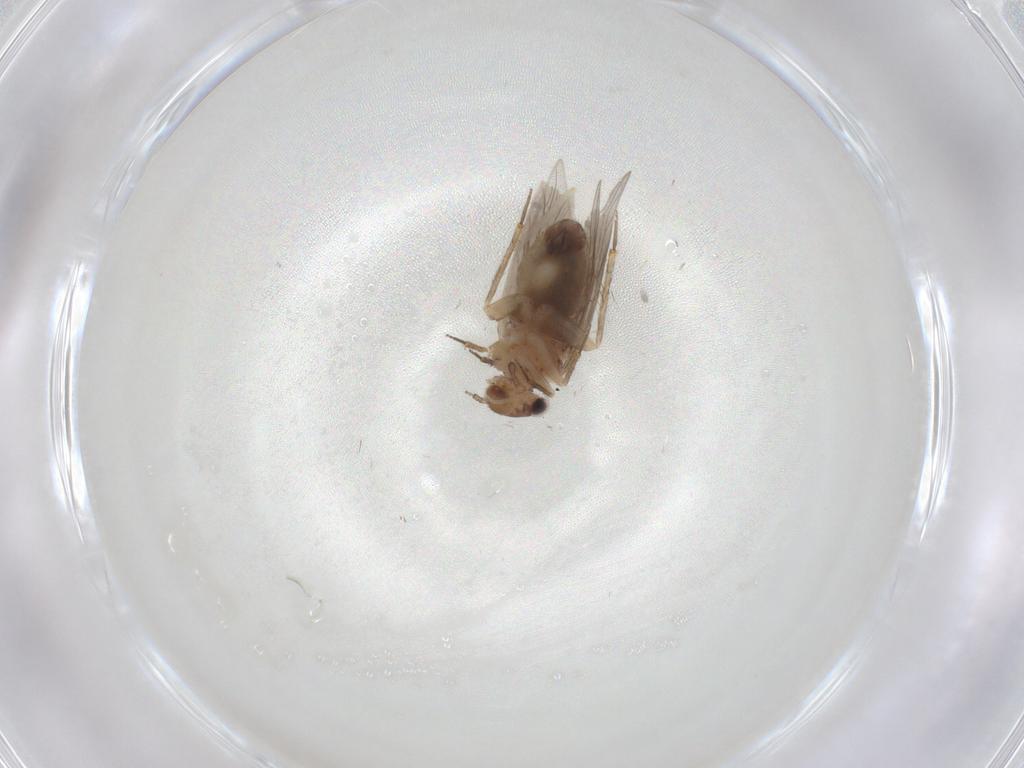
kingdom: Animalia
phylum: Arthropoda
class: Insecta
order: Psocodea
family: Lepidopsocidae
